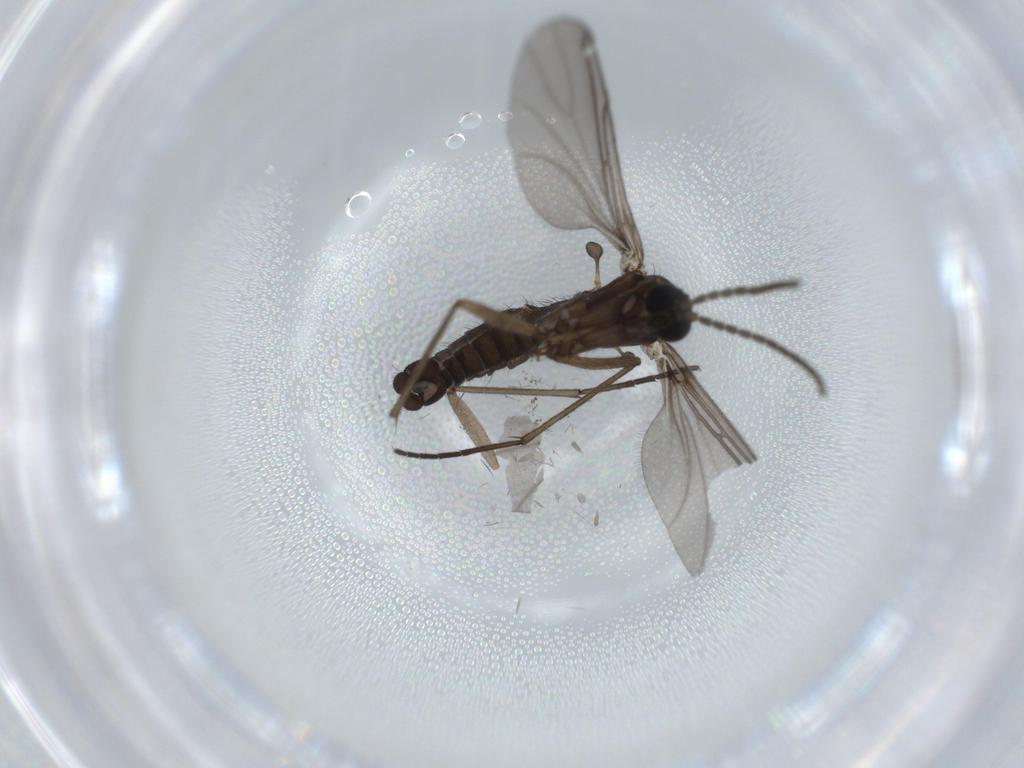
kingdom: Animalia
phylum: Arthropoda
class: Insecta
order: Diptera
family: Sciaridae
